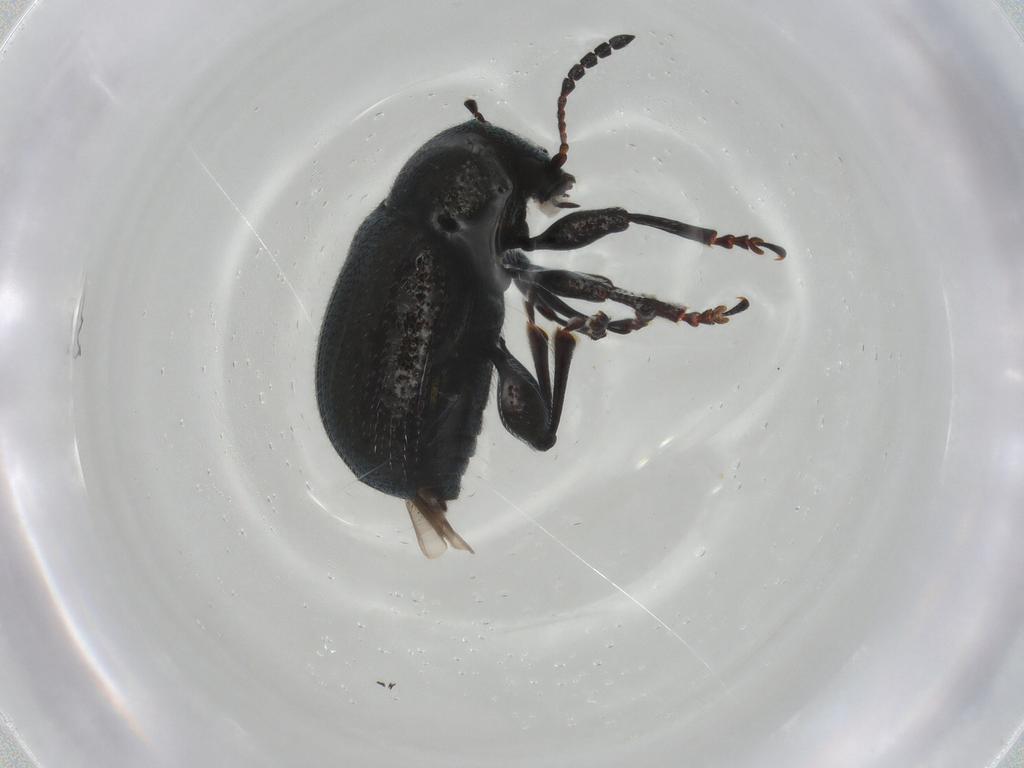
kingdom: Animalia
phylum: Arthropoda
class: Insecta
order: Coleoptera
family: Chrysomelidae
